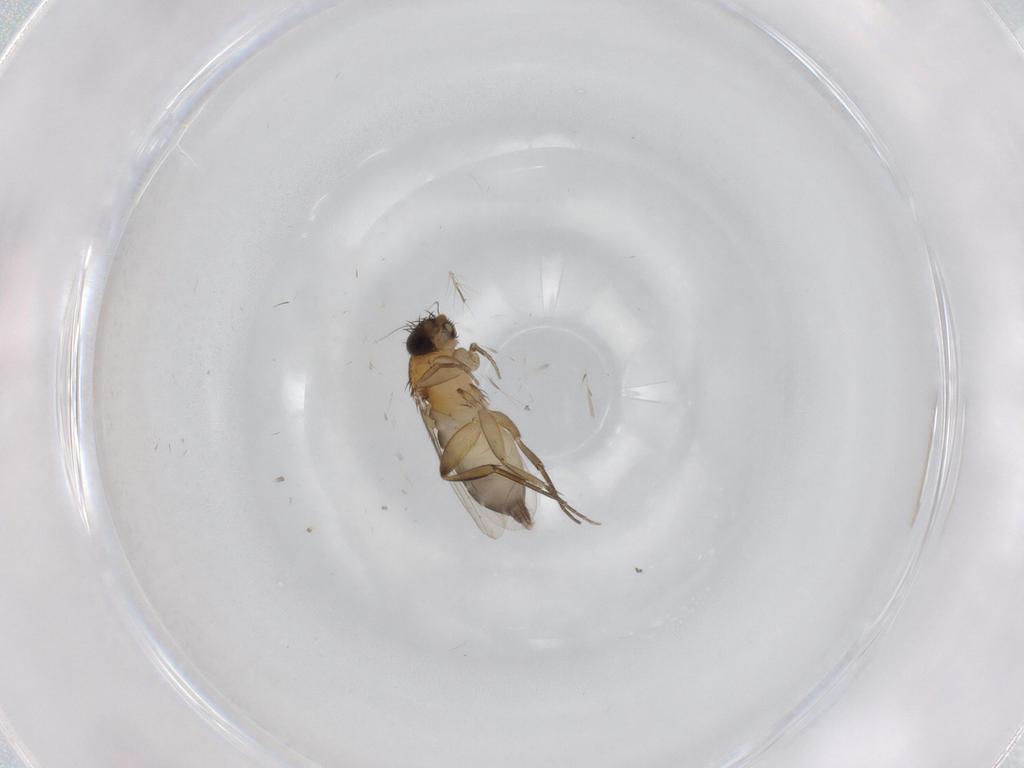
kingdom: Animalia
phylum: Arthropoda
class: Insecta
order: Diptera
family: Phoridae
